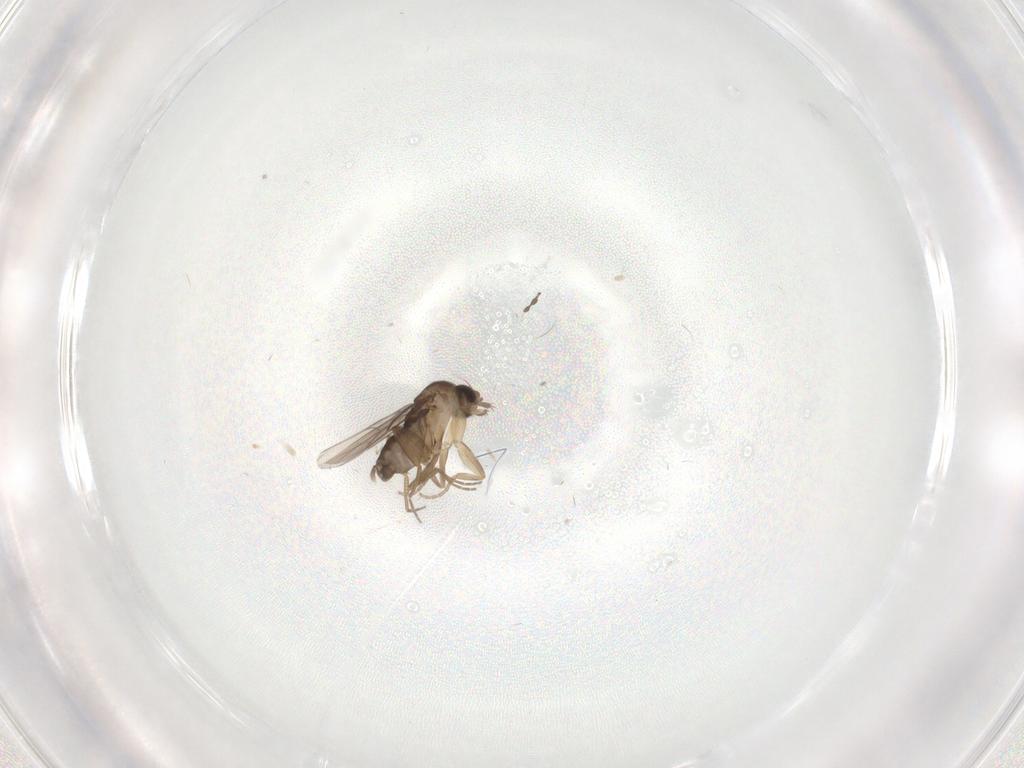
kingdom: Animalia
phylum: Arthropoda
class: Insecta
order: Diptera
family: Phoridae
